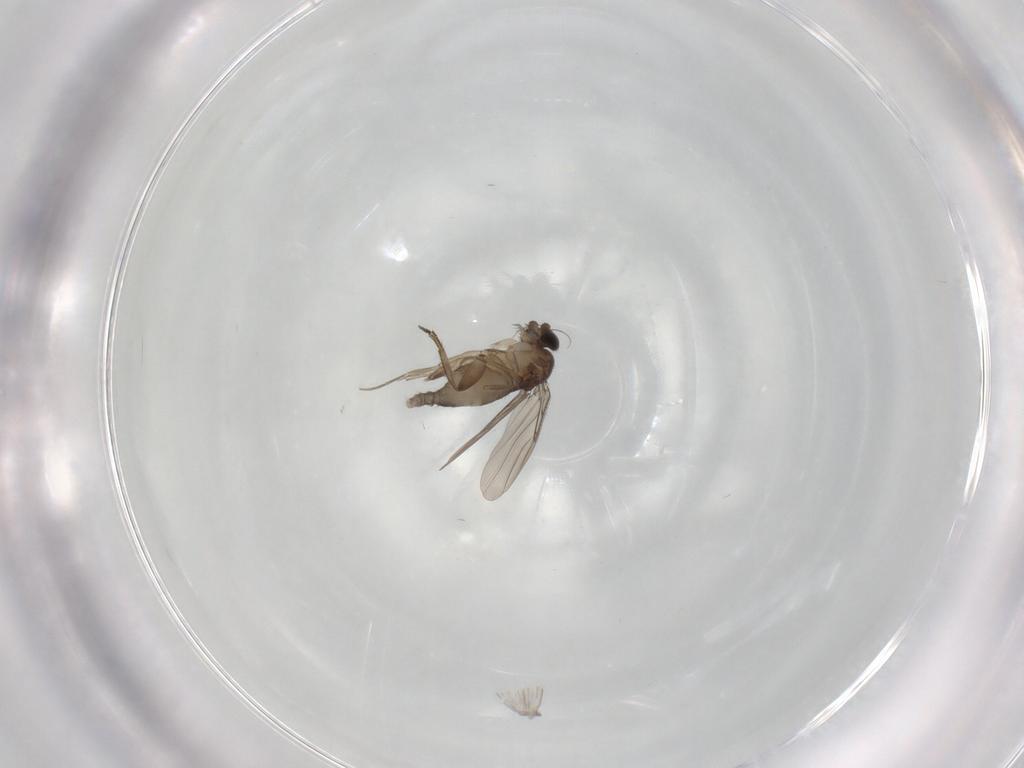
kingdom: Animalia
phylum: Arthropoda
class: Insecta
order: Diptera
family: Phoridae
